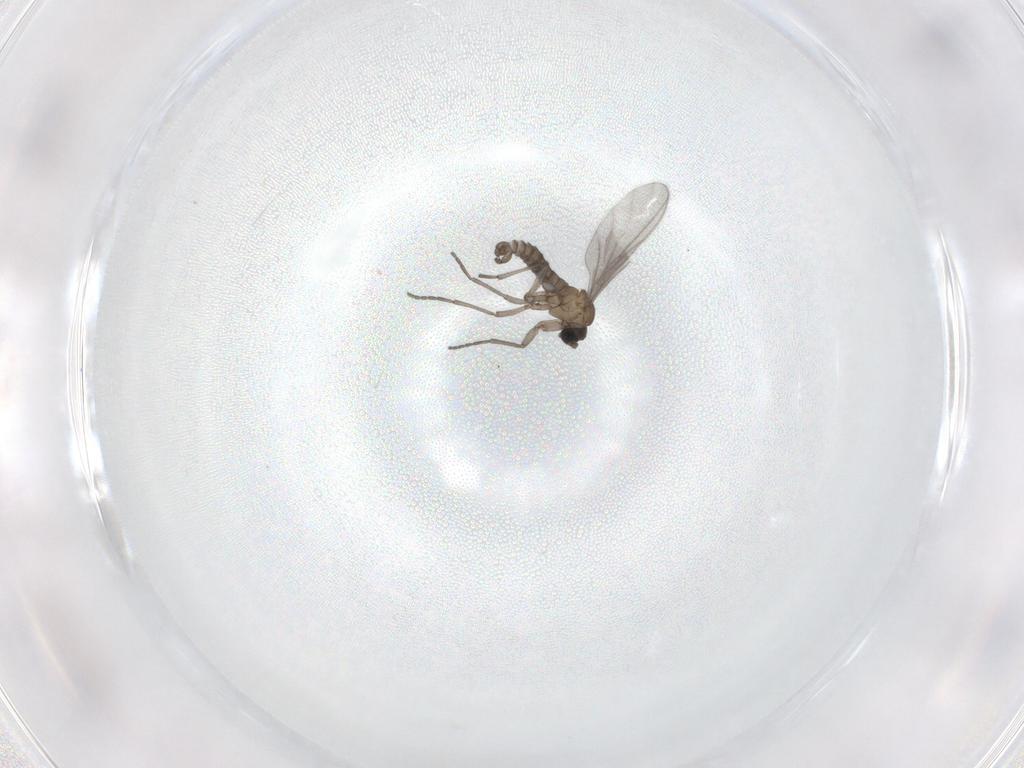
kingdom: Animalia
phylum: Arthropoda
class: Insecta
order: Diptera
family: Sciaridae
